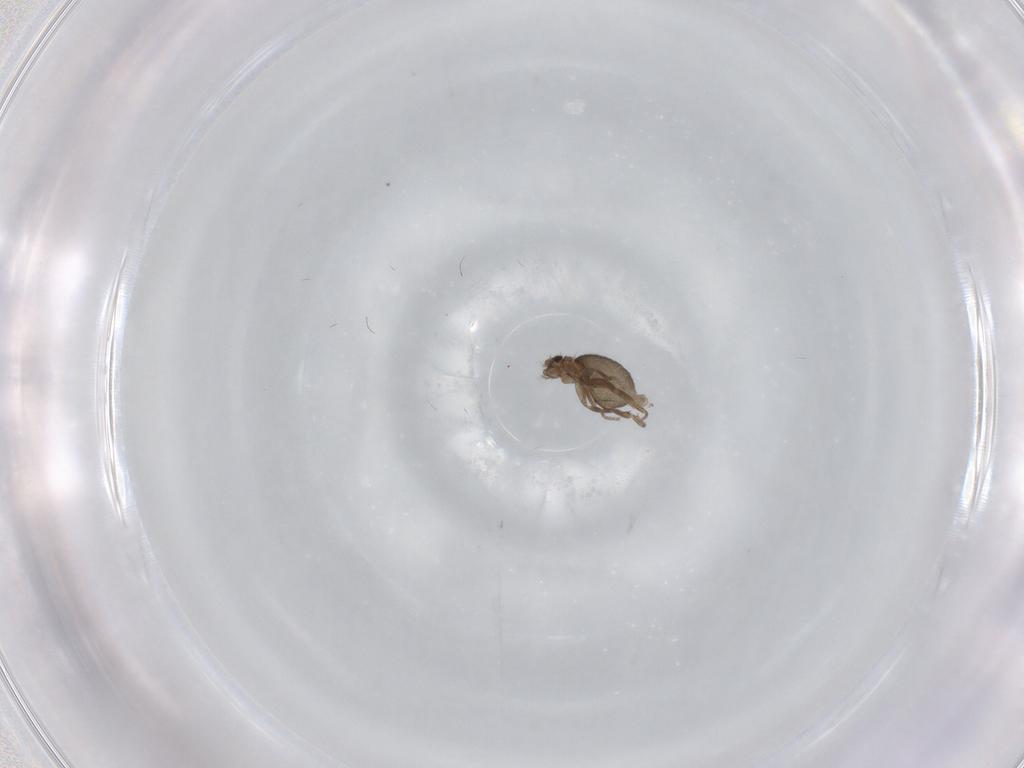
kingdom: Animalia
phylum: Arthropoda
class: Insecta
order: Diptera
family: Phoridae
